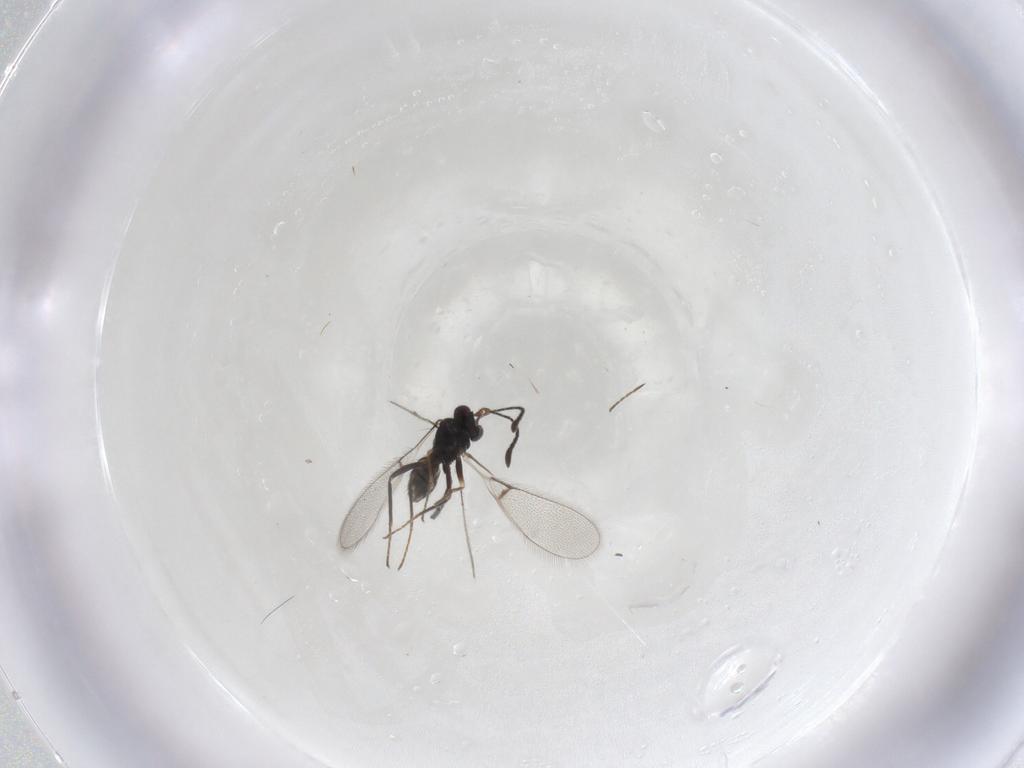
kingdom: Animalia
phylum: Arthropoda
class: Insecta
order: Hymenoptera
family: Mymaridae
